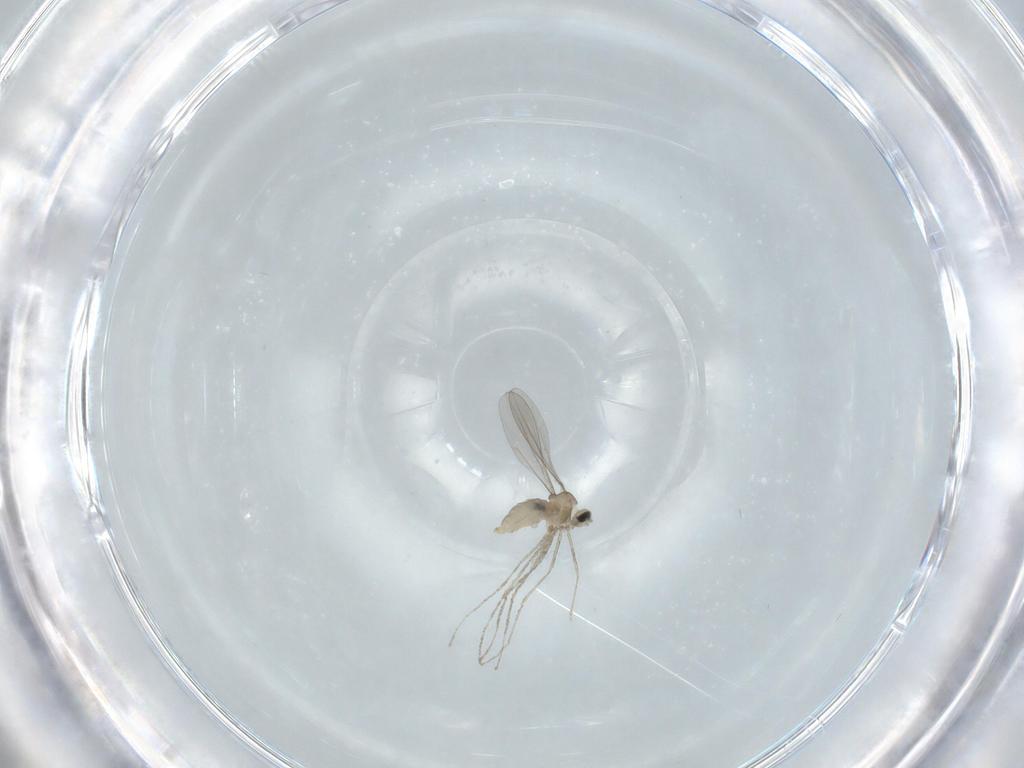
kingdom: Animalia
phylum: Arthropoda
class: Insecta
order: Diptera
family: Cecidomyiidae
